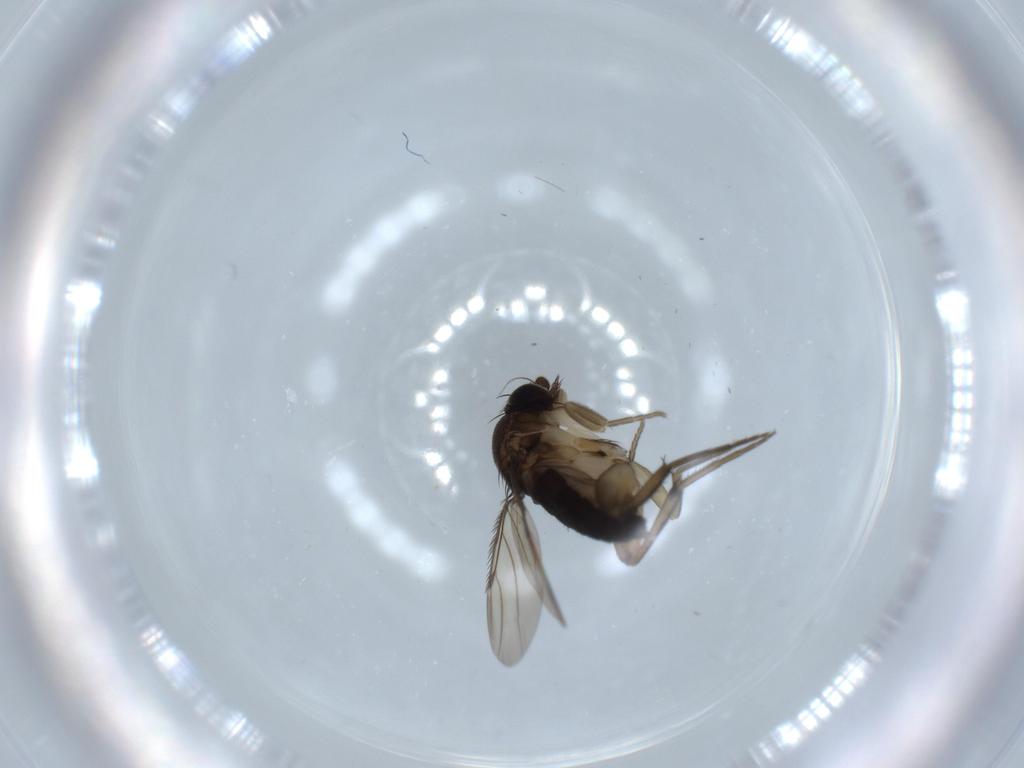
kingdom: Animalia
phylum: Arthropoda
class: Insecta
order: Diptera
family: Phoridae
